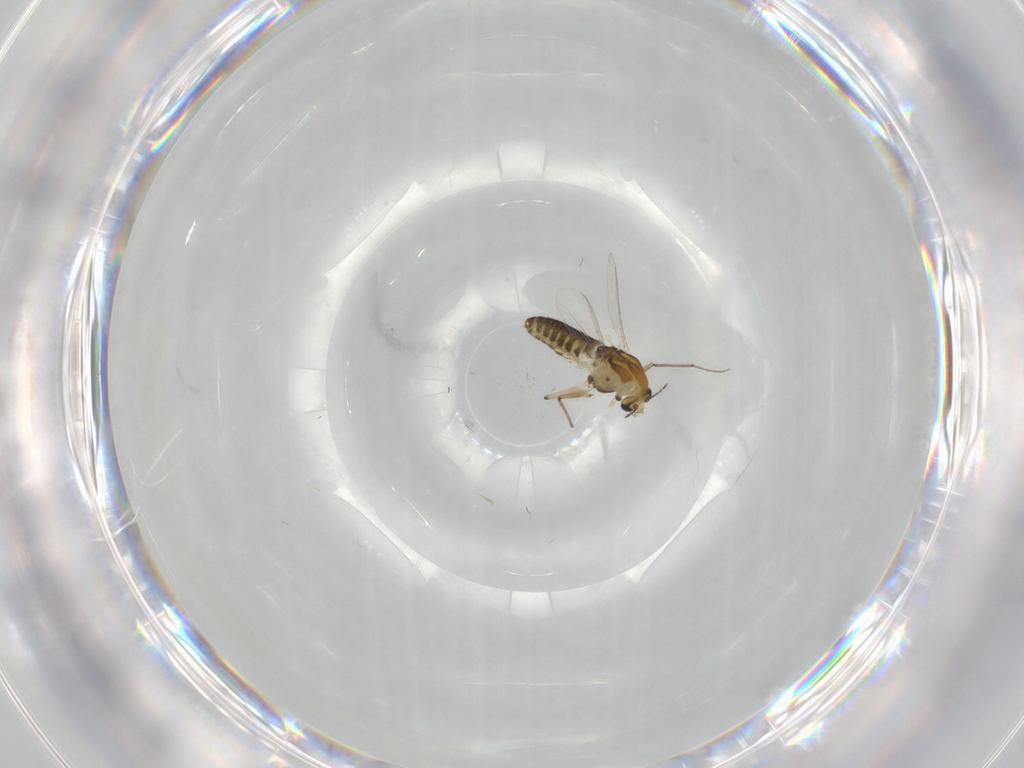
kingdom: Animalia
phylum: Arthropoda
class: Insecta
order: Diptera
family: Chironomidae
